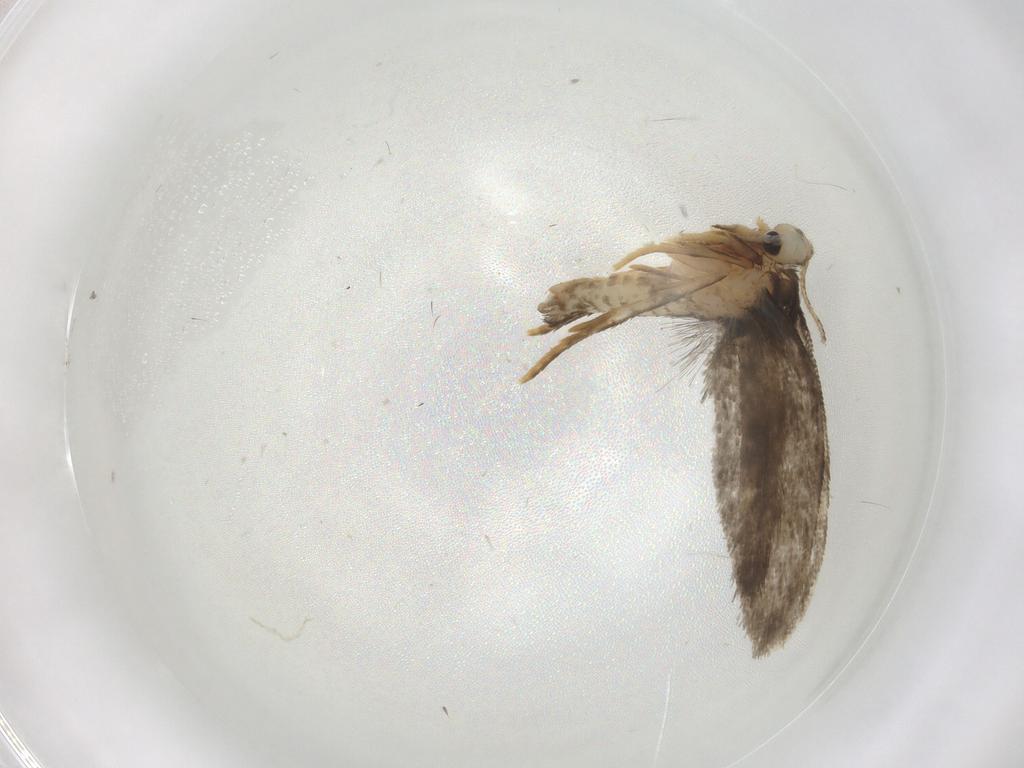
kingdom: Animalia
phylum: Arthropoda
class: Insecta
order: Lepidoptera
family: Psychidae
